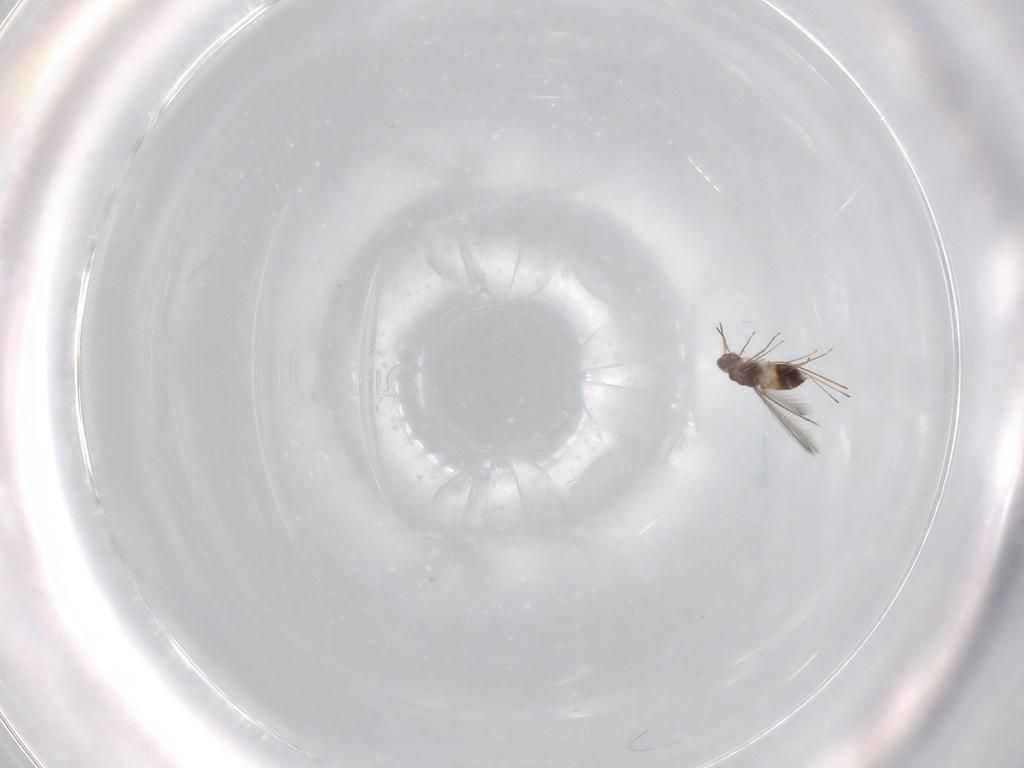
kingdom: Animalia
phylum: Arthropoda
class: Insecta
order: Hymenoptera
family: Mymaridae
